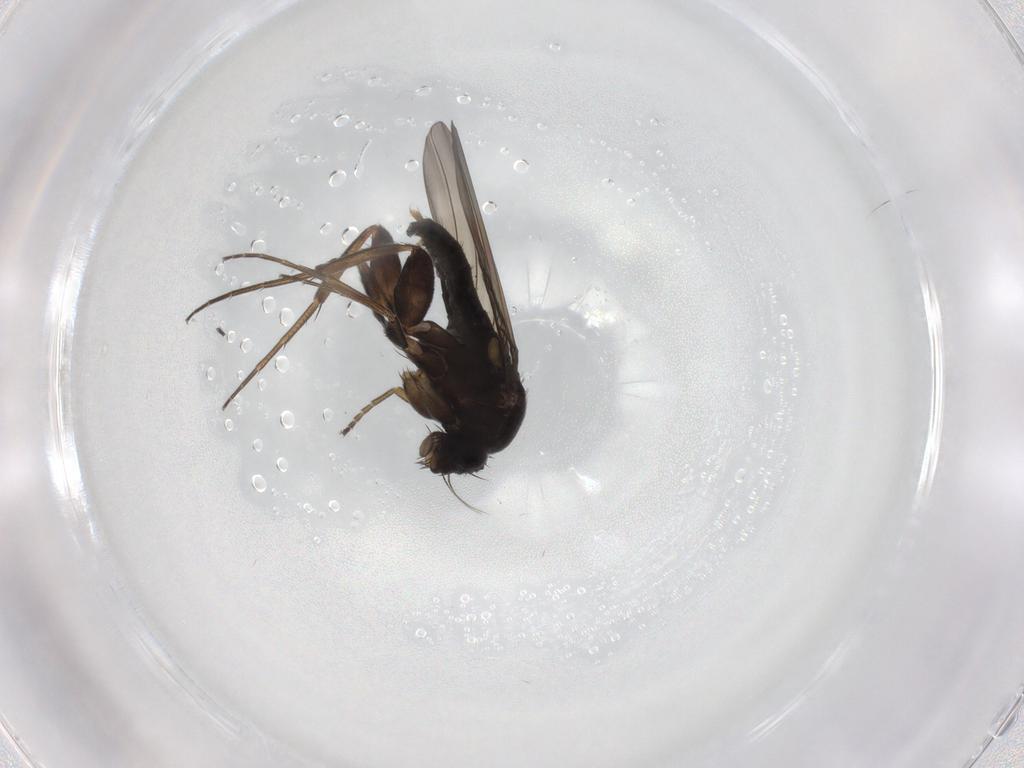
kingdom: Animalia
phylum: Arthropoda
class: Insecta
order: Diptera
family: Phoridae
